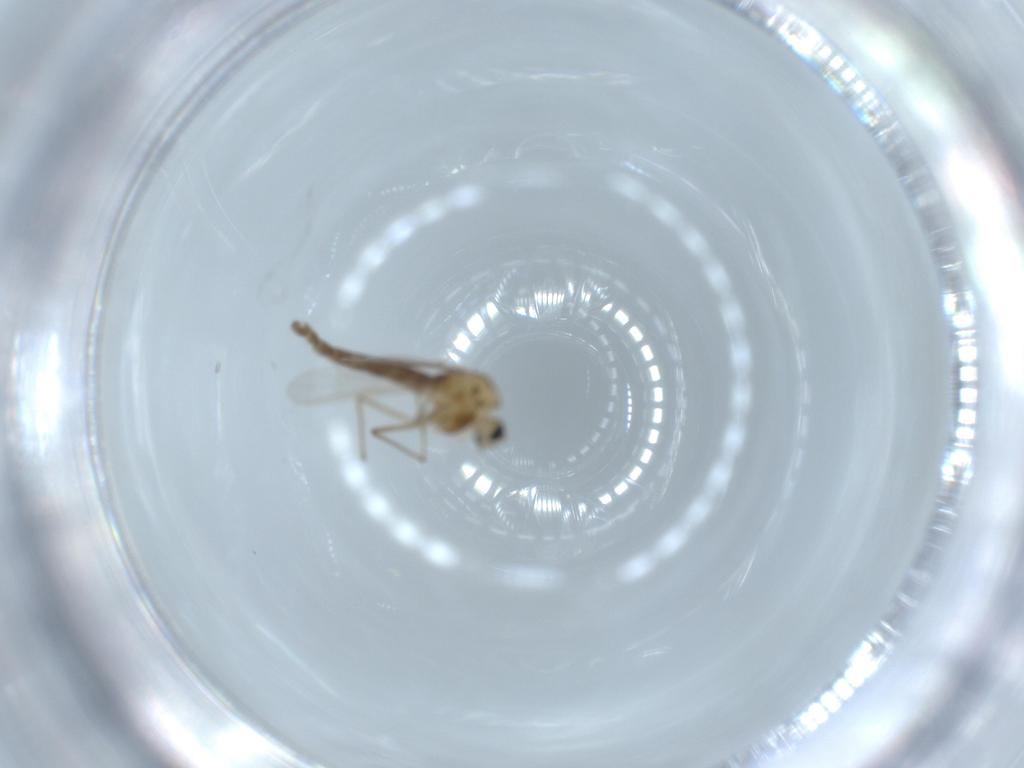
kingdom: Animalia
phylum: Arthropoda
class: Insecta
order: Diptera
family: Chironomidae
